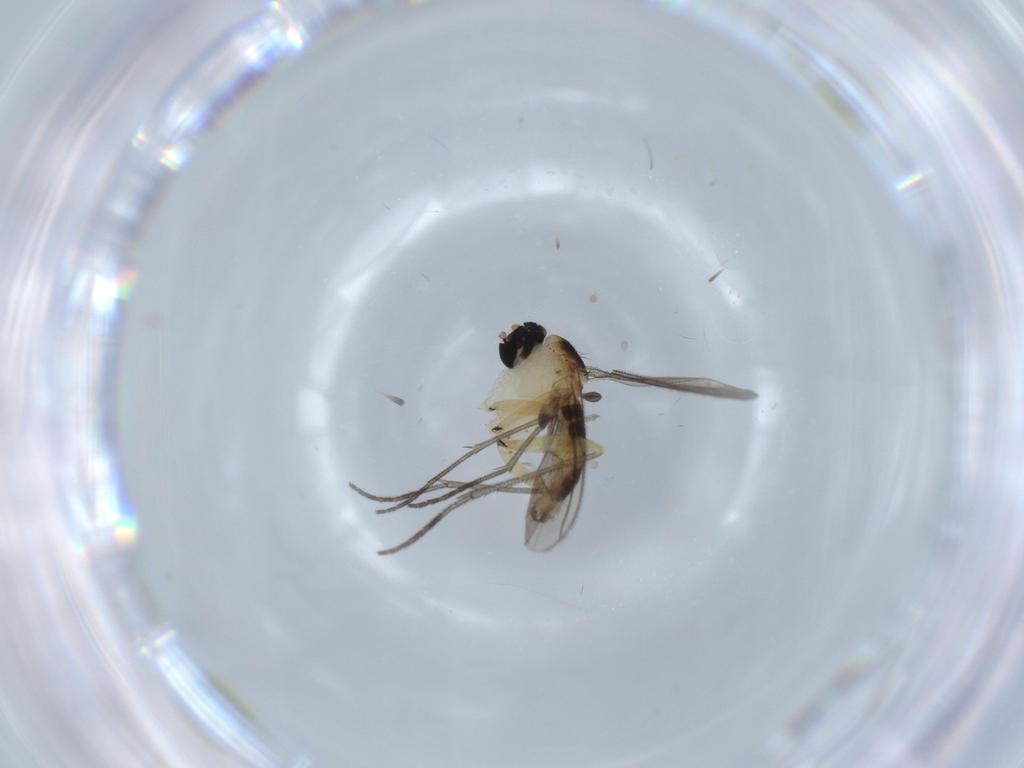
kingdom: Animalia
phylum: Arthropoda
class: Insecta
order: Diptera
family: Sciaridae
